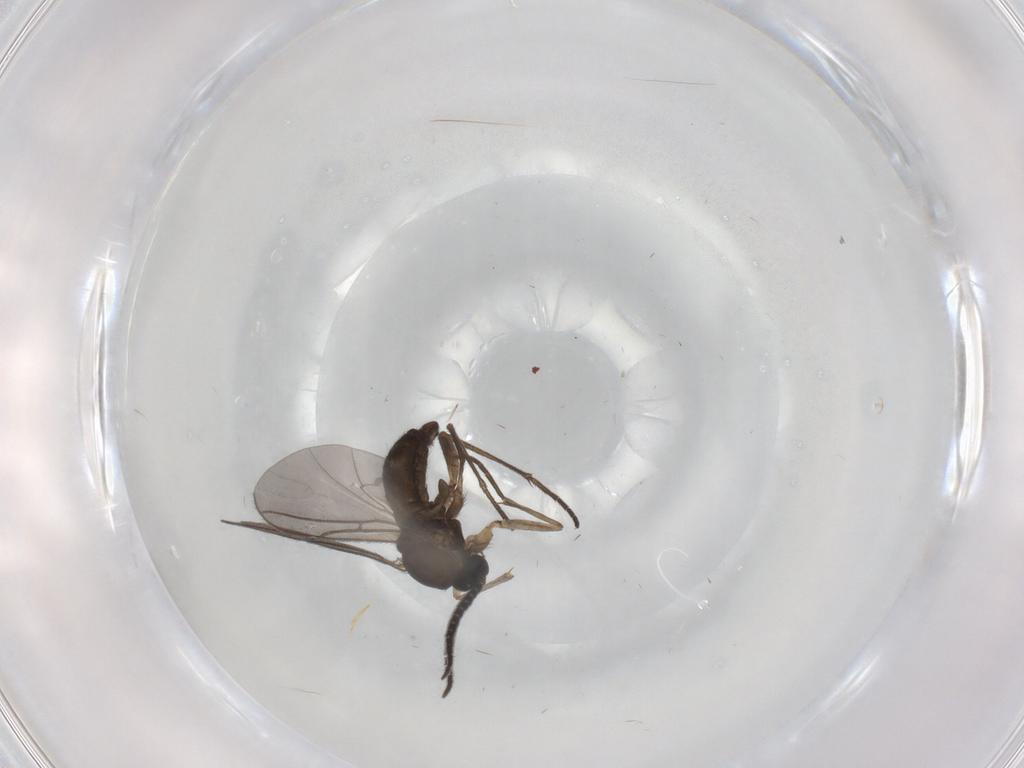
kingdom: Animalia
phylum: Arthropoda
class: Insecta
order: Diptera
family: Sciaridae
